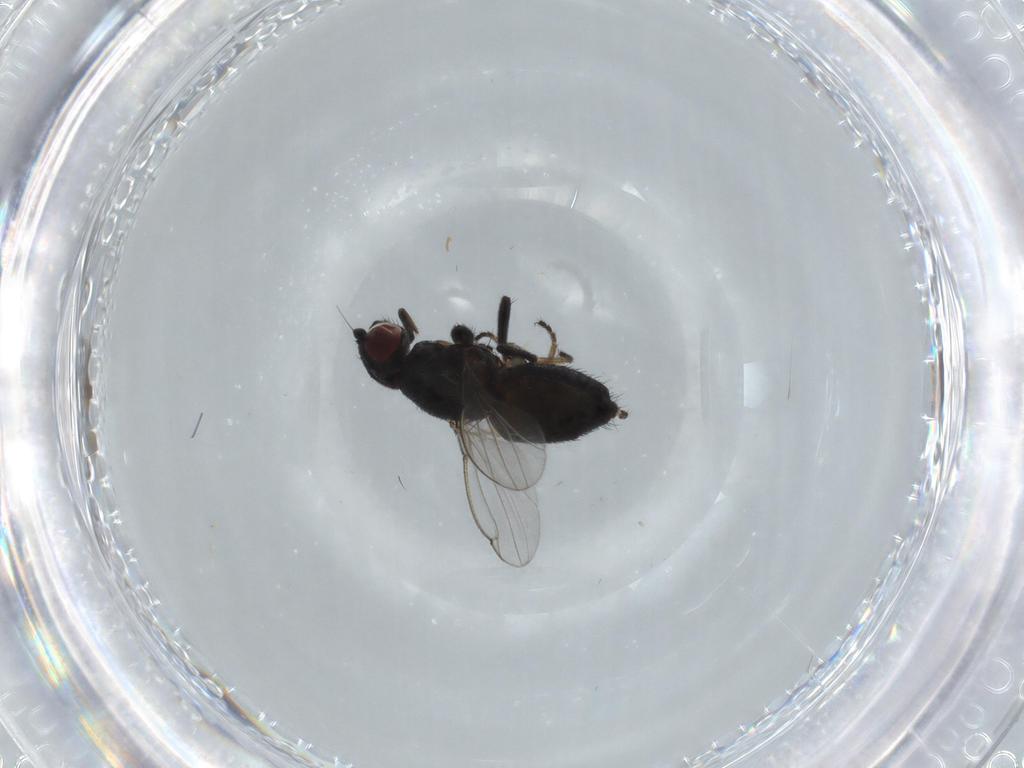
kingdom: Animalia
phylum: Arthropoda
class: Insecta
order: Diptera
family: Milichiidae
